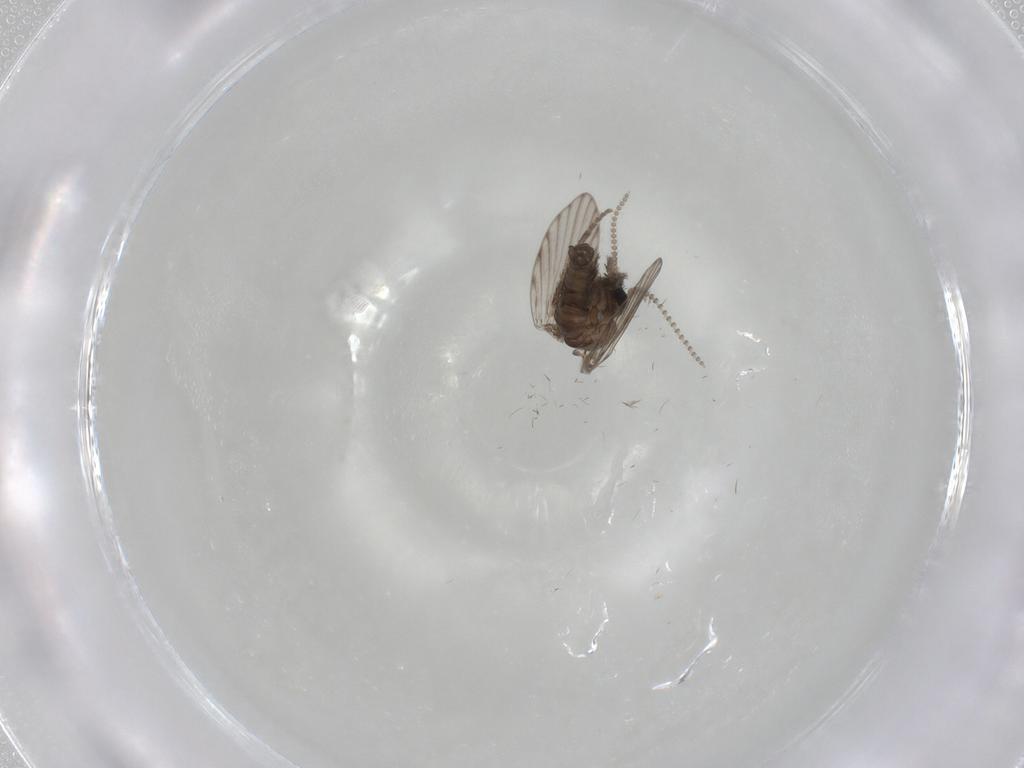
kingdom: Animalia
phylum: Arthropoda
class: Insecta
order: Diptera
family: Psychodidae
